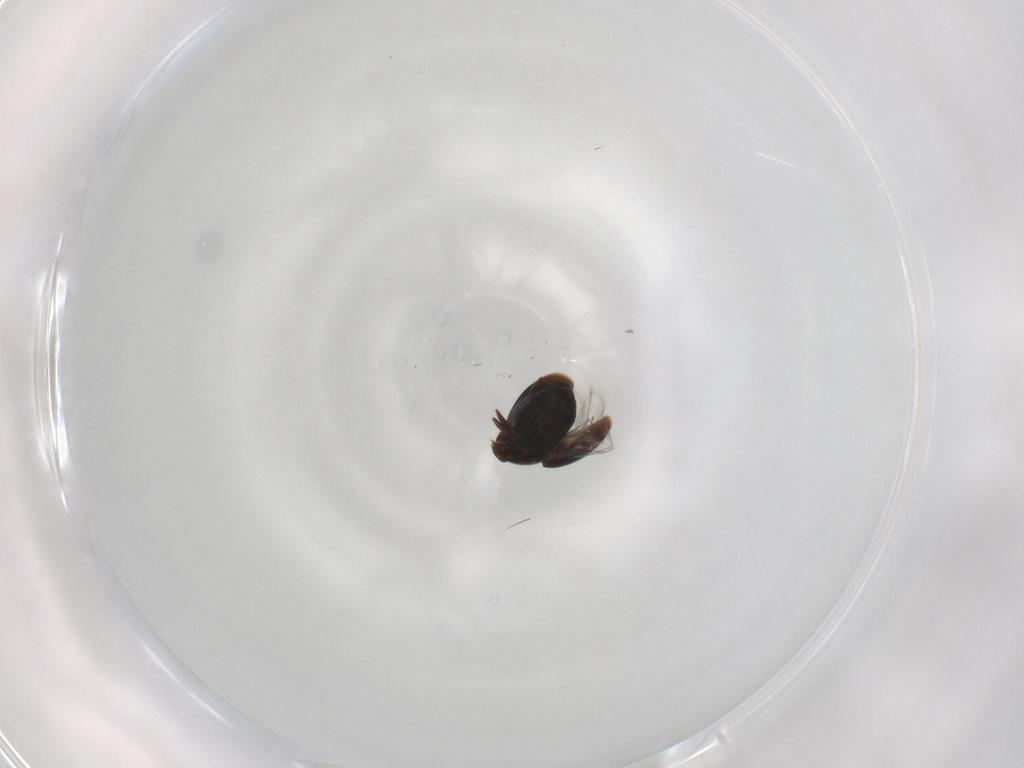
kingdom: Animalia
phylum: Arthropoda
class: Insecta
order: Coleoptera
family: Corylophidae
